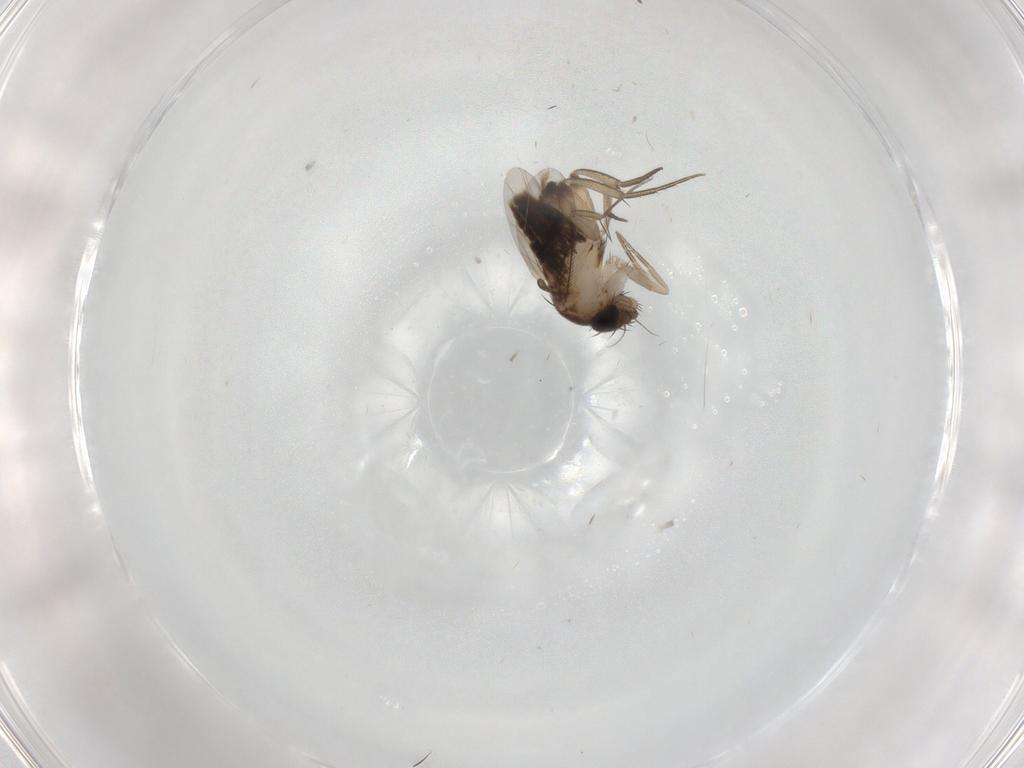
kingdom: Animalia
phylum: Arthropoda
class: Insecta
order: Diptera
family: Phoridae
